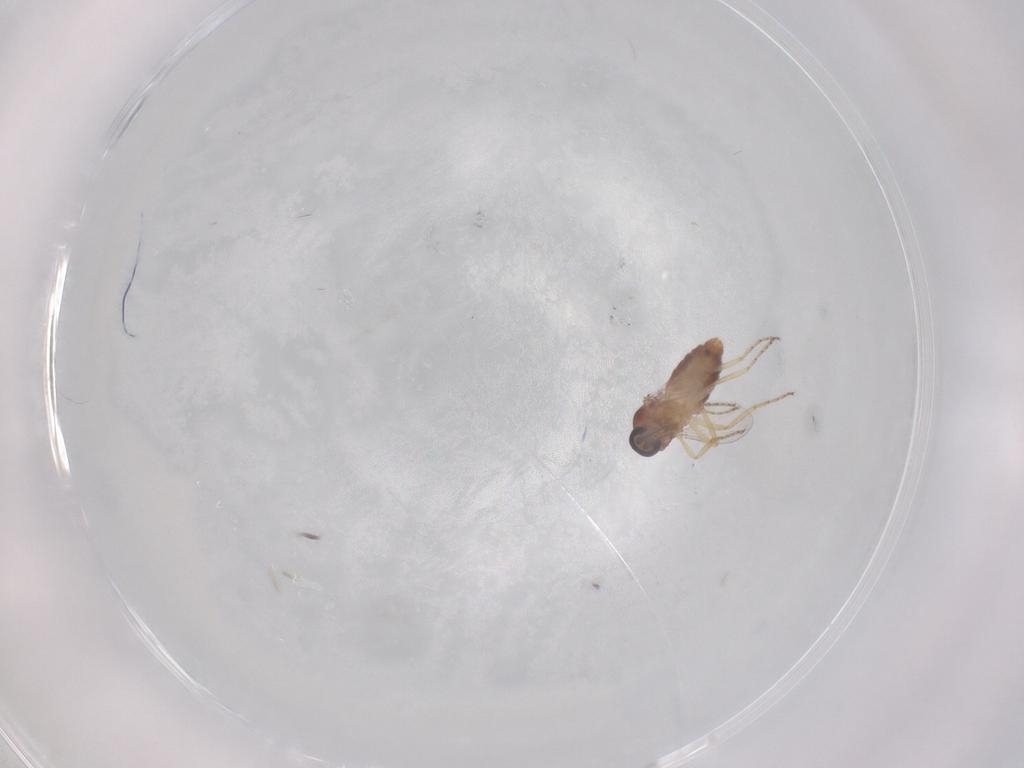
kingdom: Animalia
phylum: Arthropoda
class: Insecta
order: Diptera
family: Ceratopogonidae
